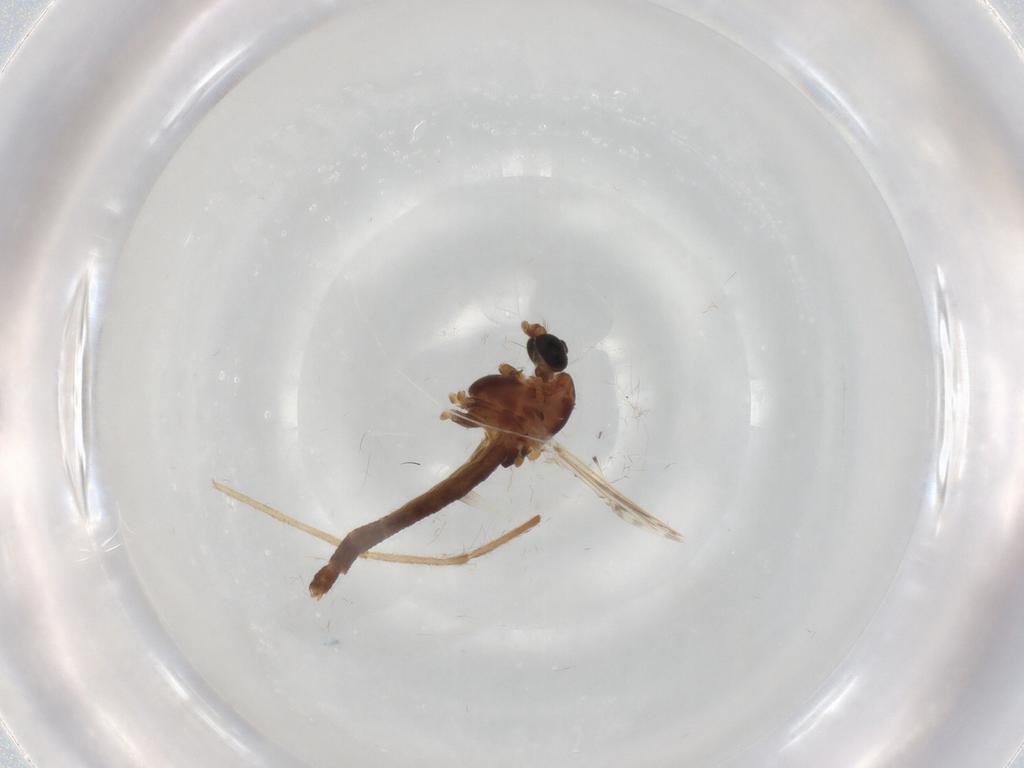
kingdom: Animalia
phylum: Arthropoda
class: Insecta
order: Diptera
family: Chironomidae
